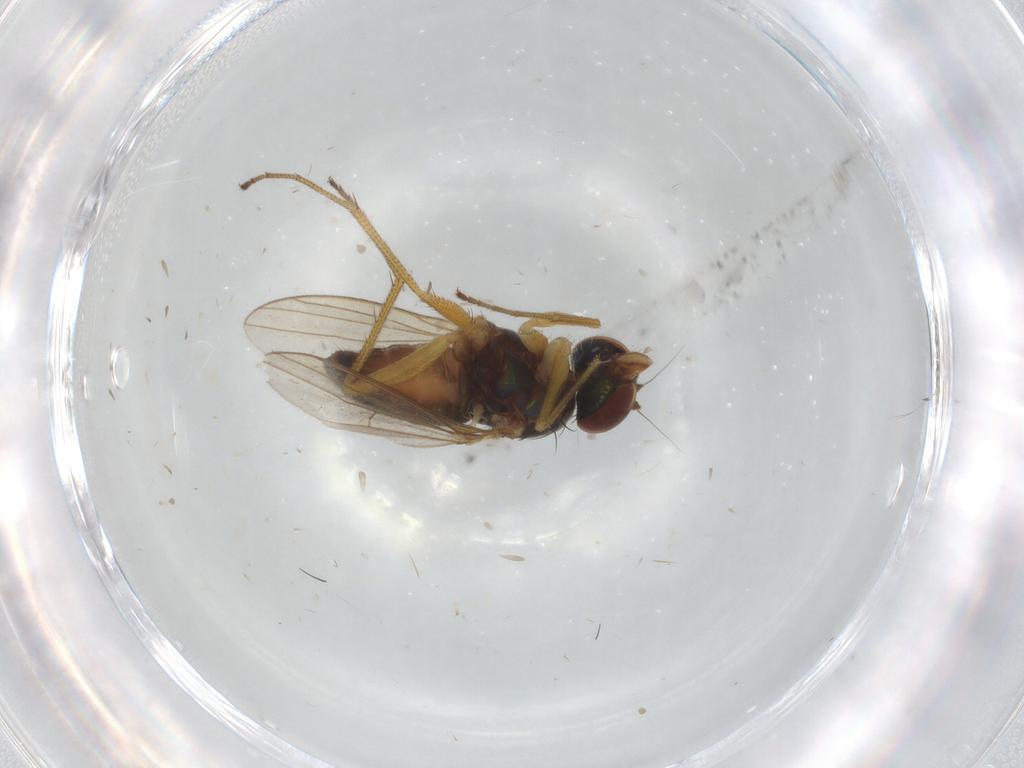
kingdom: Animalia
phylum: Arthropoda
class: Insecta
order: Diptera
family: Dolichopodidae
